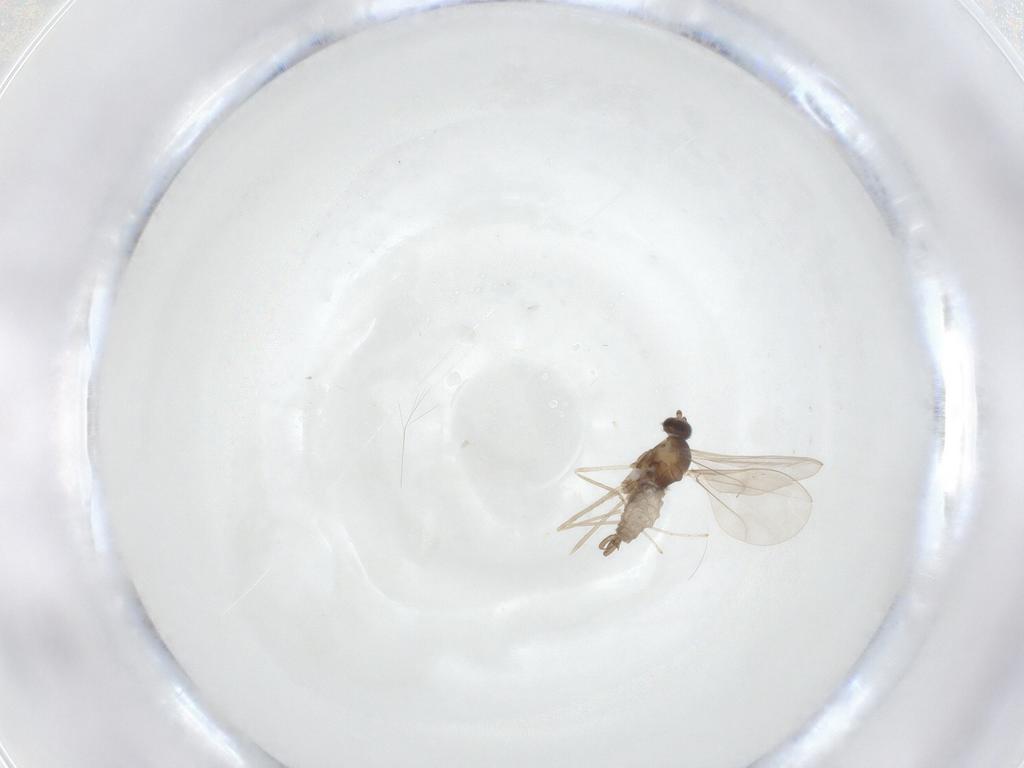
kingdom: Animalia
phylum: Arthropoda
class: Insecta
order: Diptera
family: Cecidomyiidae
